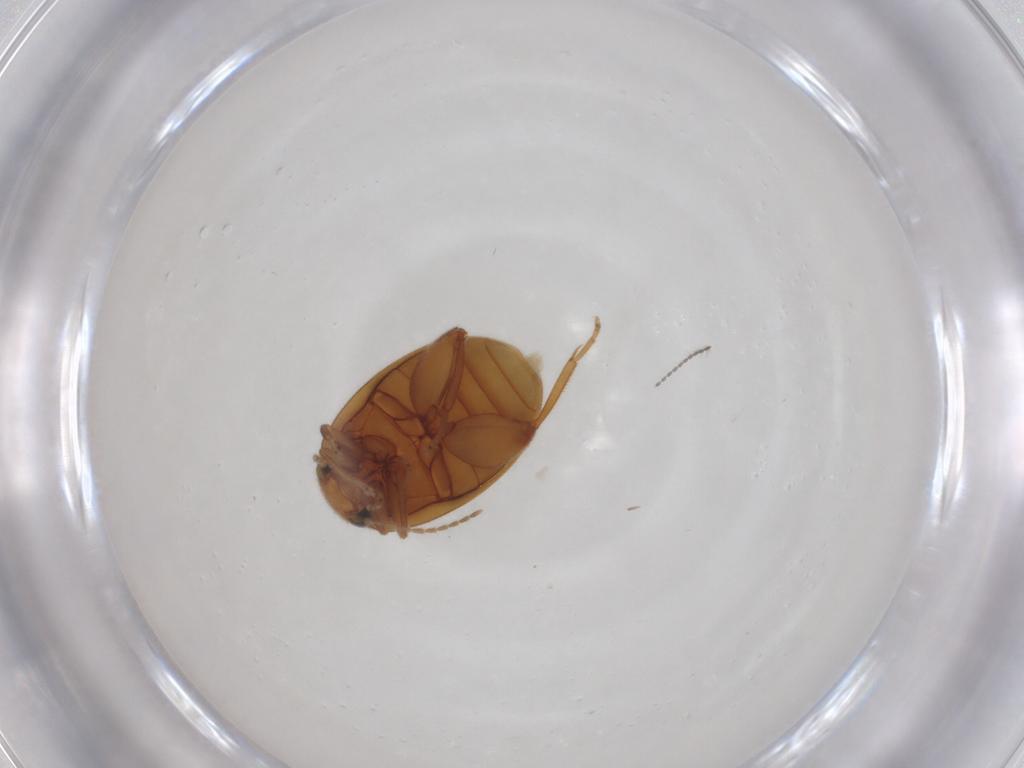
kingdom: Animalia
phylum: Arthropoda
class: Insecta
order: Coleoptera
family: Scirtidae
